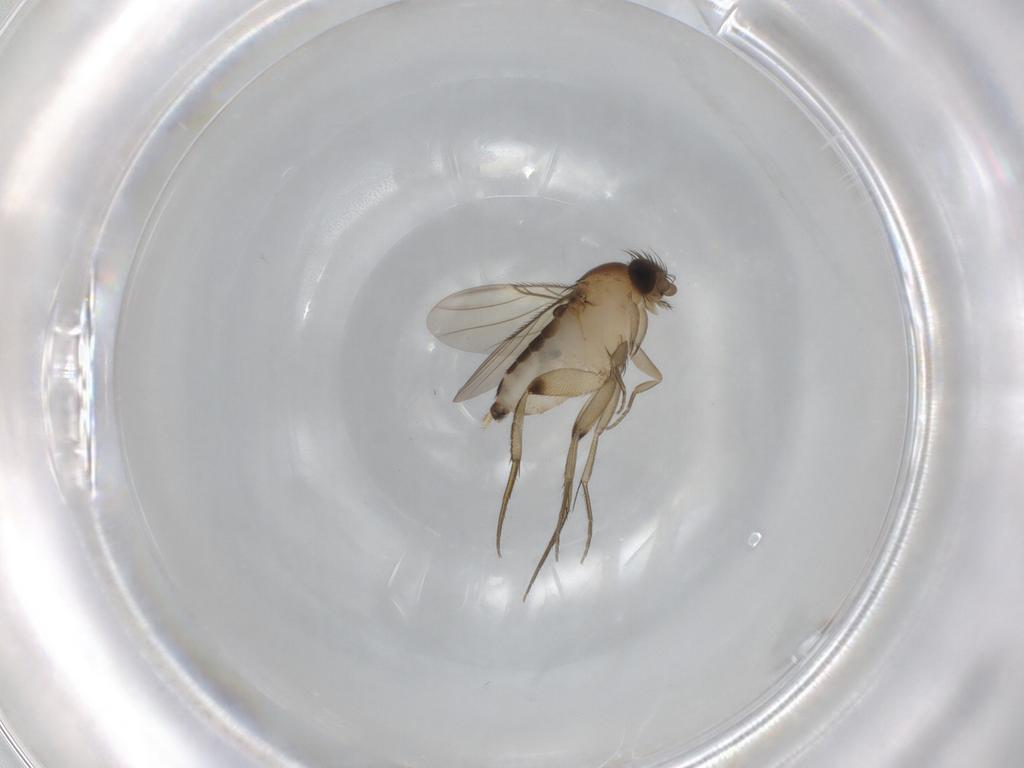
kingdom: Animalia
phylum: Arthropoda
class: Insecta
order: Diptera
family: Phoridae
